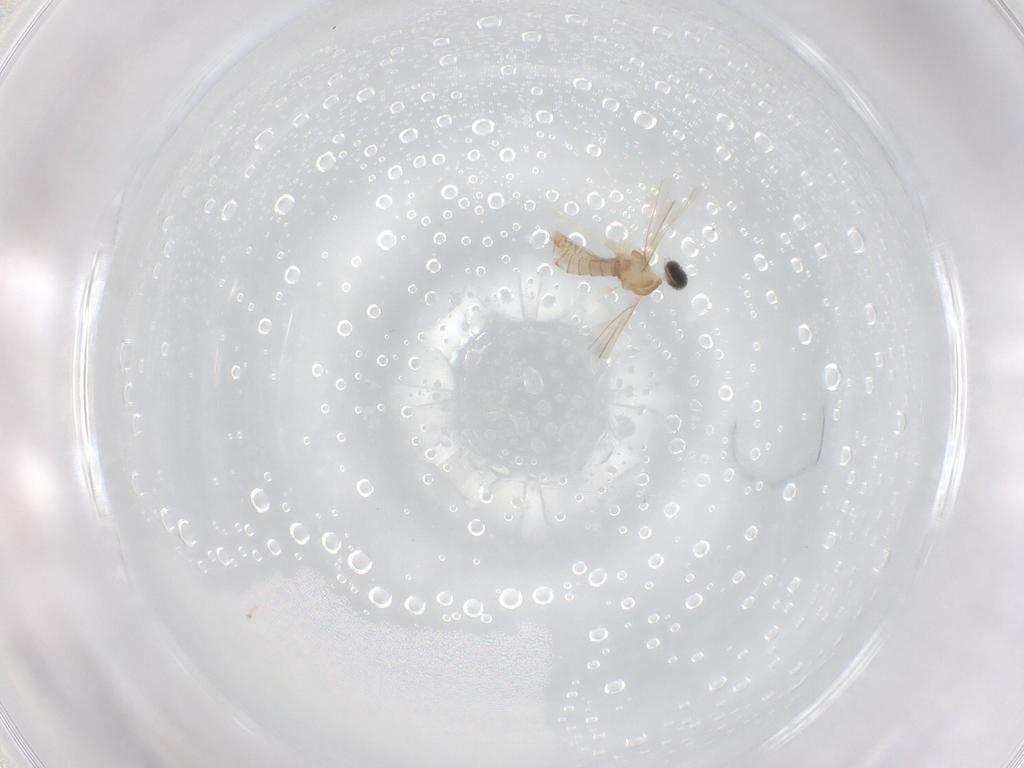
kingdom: Animalia
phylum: Arthropoda
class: Insecta
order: Diptera
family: Cecidomyiidae
